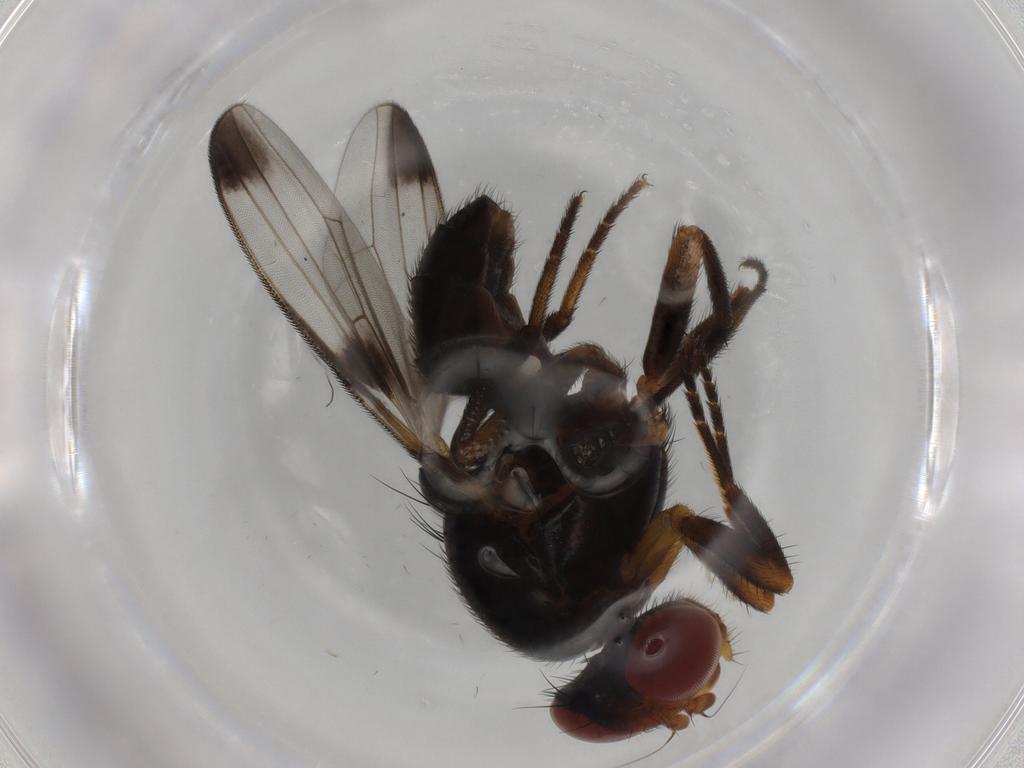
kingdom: Animalia
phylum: Arthropoda
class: Insecta
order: Diptera
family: Ulidiidae
